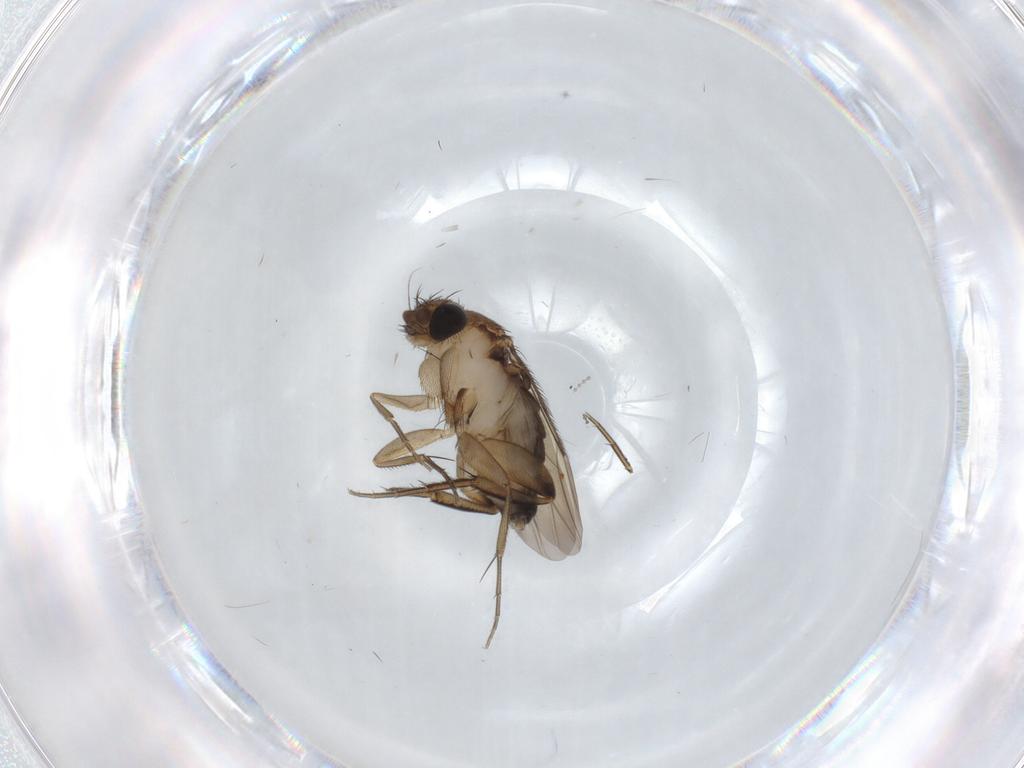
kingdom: Animalia
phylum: Arthropoda
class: Insecta
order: Diptera
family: Phoridae
